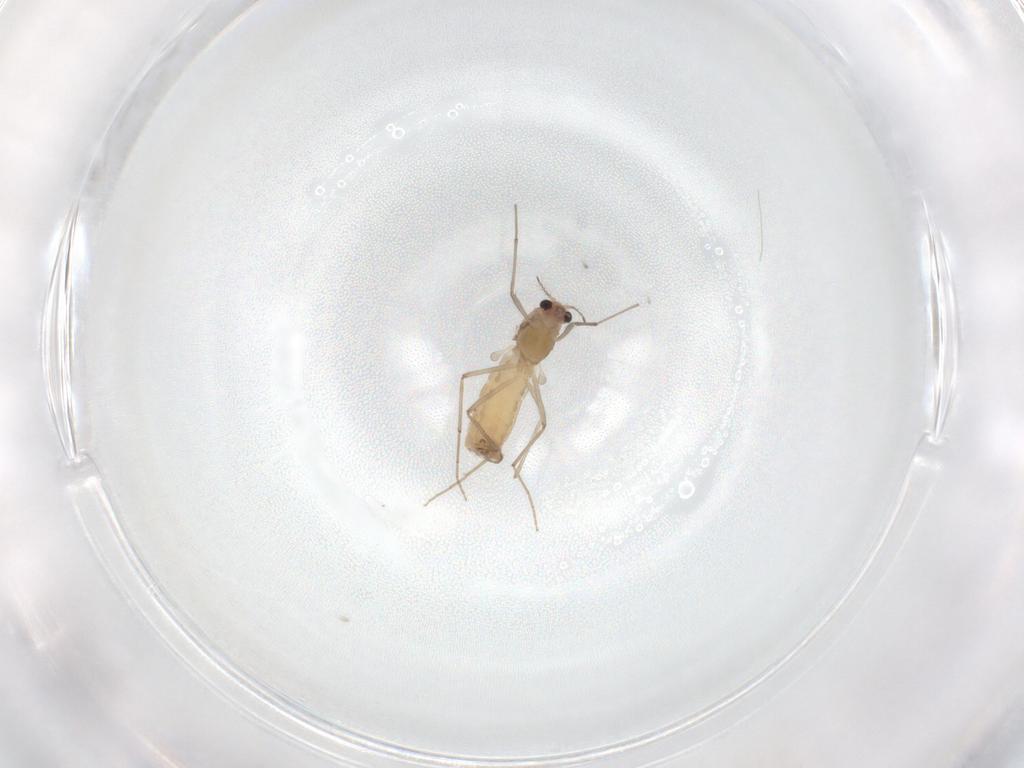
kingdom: Animalia
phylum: Arthropoda
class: Insecta
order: Diptera
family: Chironomidae
